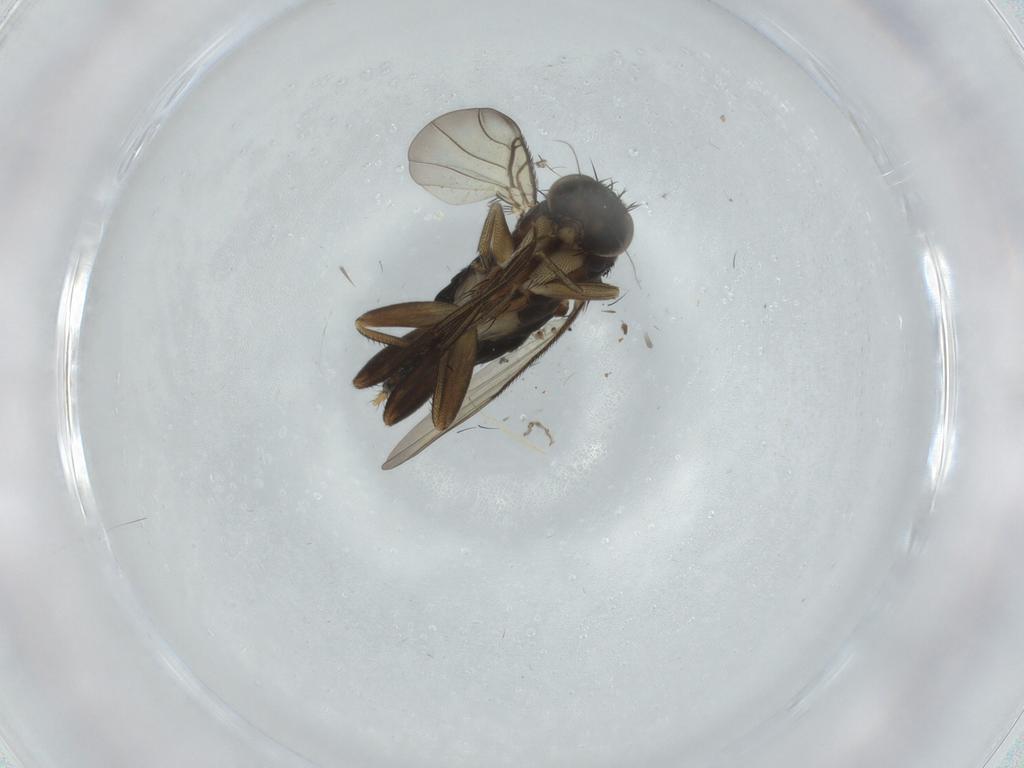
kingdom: Animalia
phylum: Arthropoda
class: Insecta
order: Diptera
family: Phoridae
